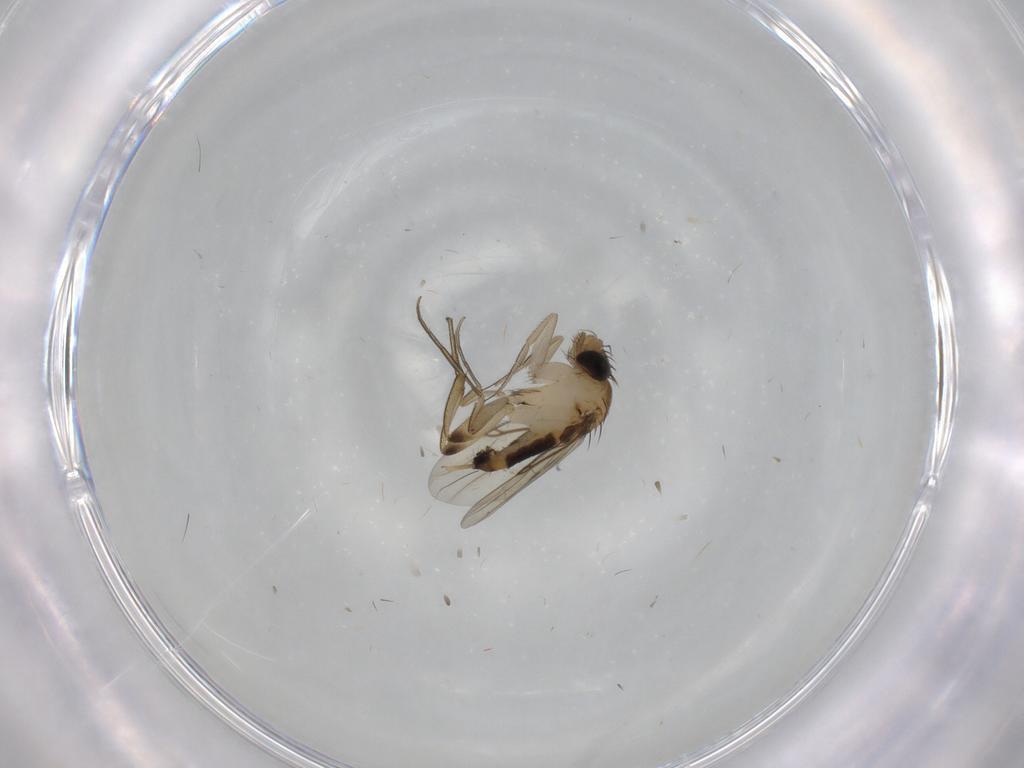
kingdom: Animalia
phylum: Arthropoda
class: Insecta
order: Diptera
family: Phoridae
